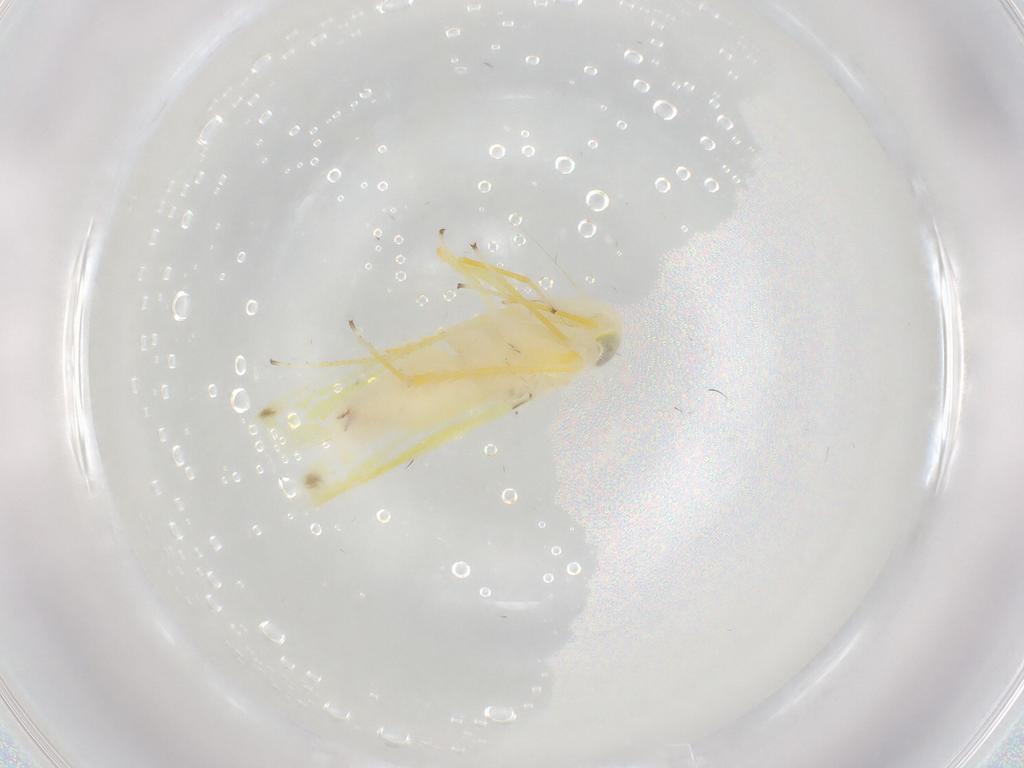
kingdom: Animalia
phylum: Arthropoda
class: Insecta
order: Hemiptera
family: Cicadellidae
